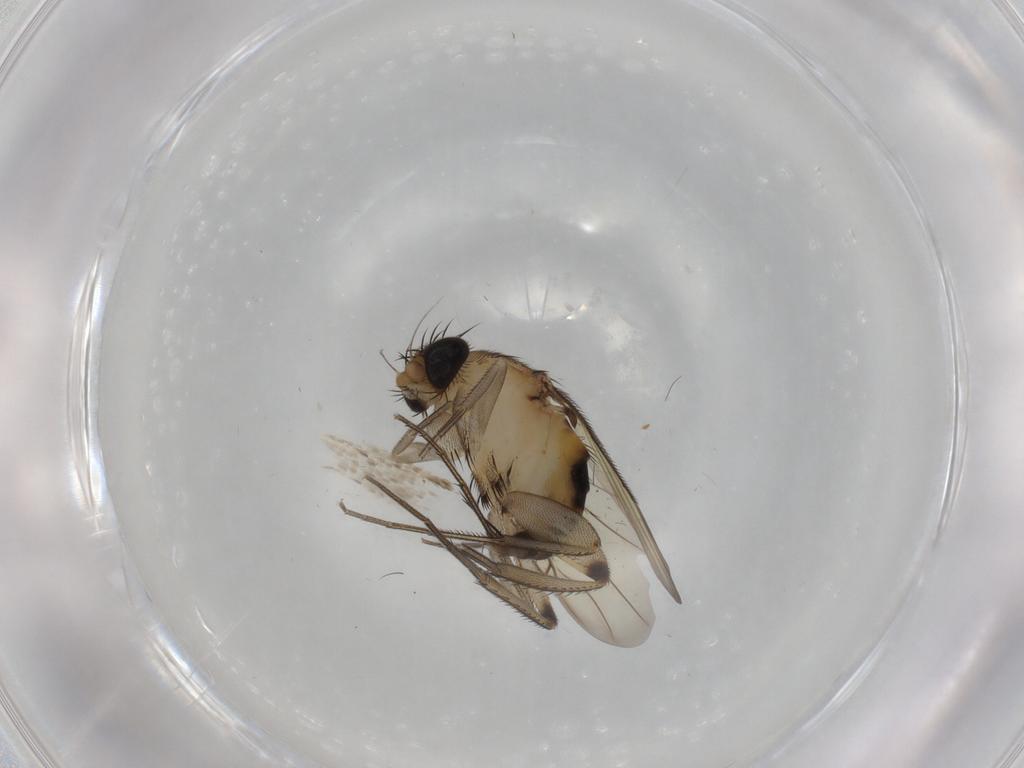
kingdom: Animalia
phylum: Arthropoda
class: Insecta
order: Diptera
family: Phoridae
